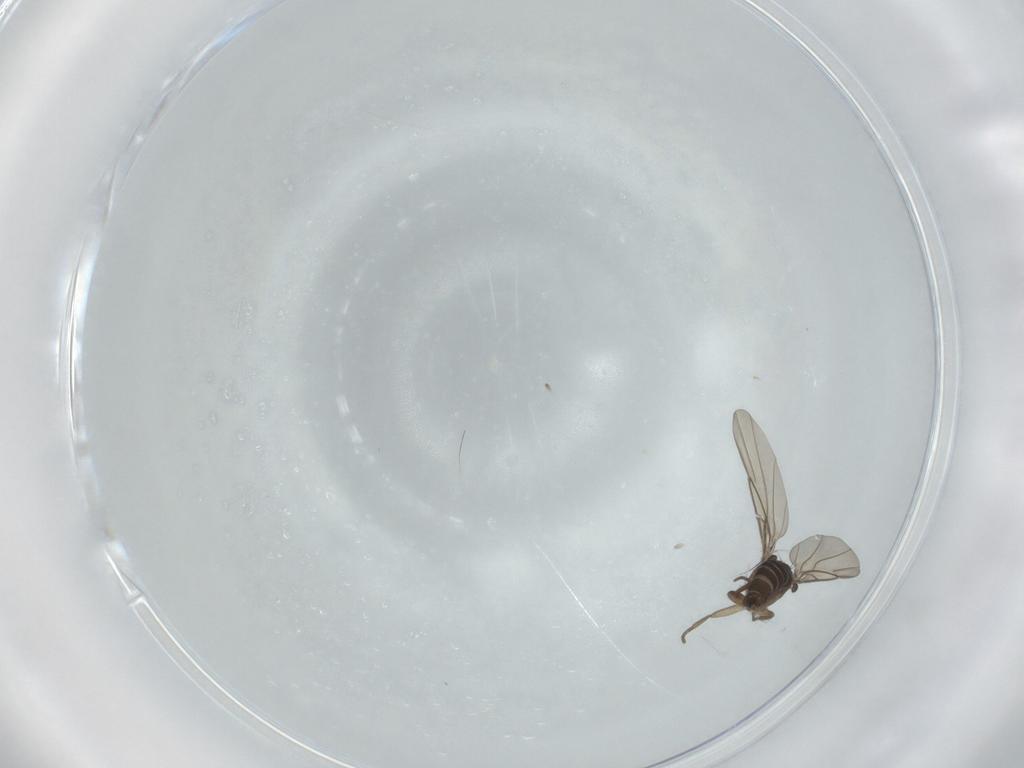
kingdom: Animalia
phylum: Arthropoda
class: Insecta
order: Diptera
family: Phoridae
